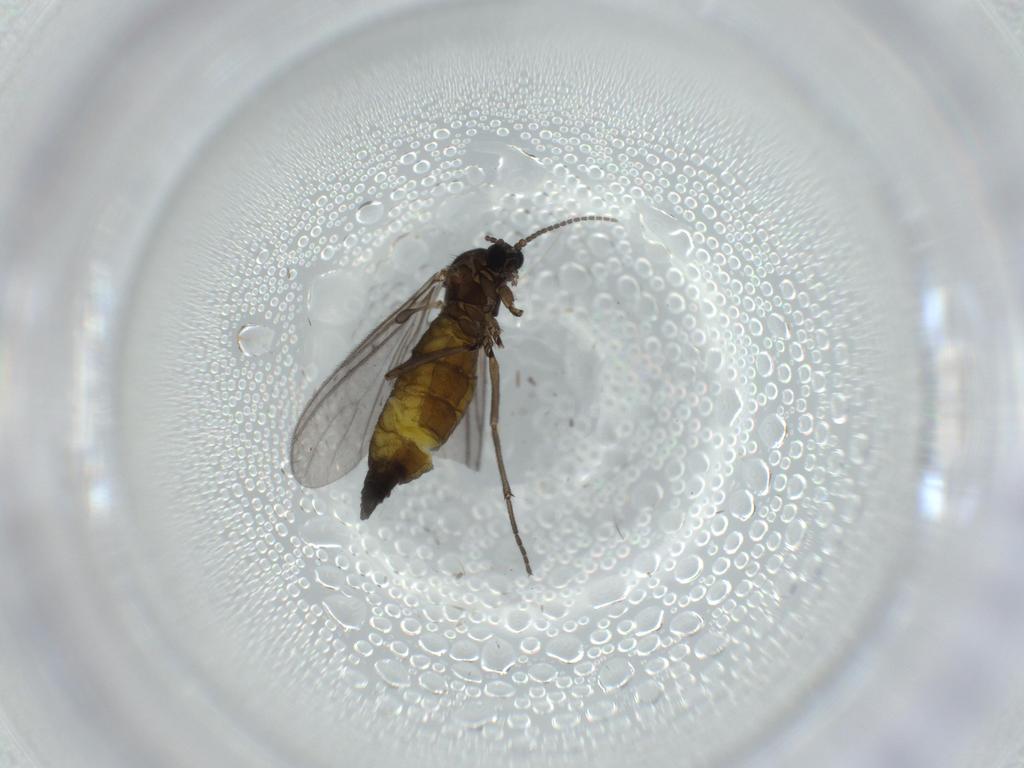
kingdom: Animalia
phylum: Arthropoda
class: Insecta
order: Diptera
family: Sciaridae
